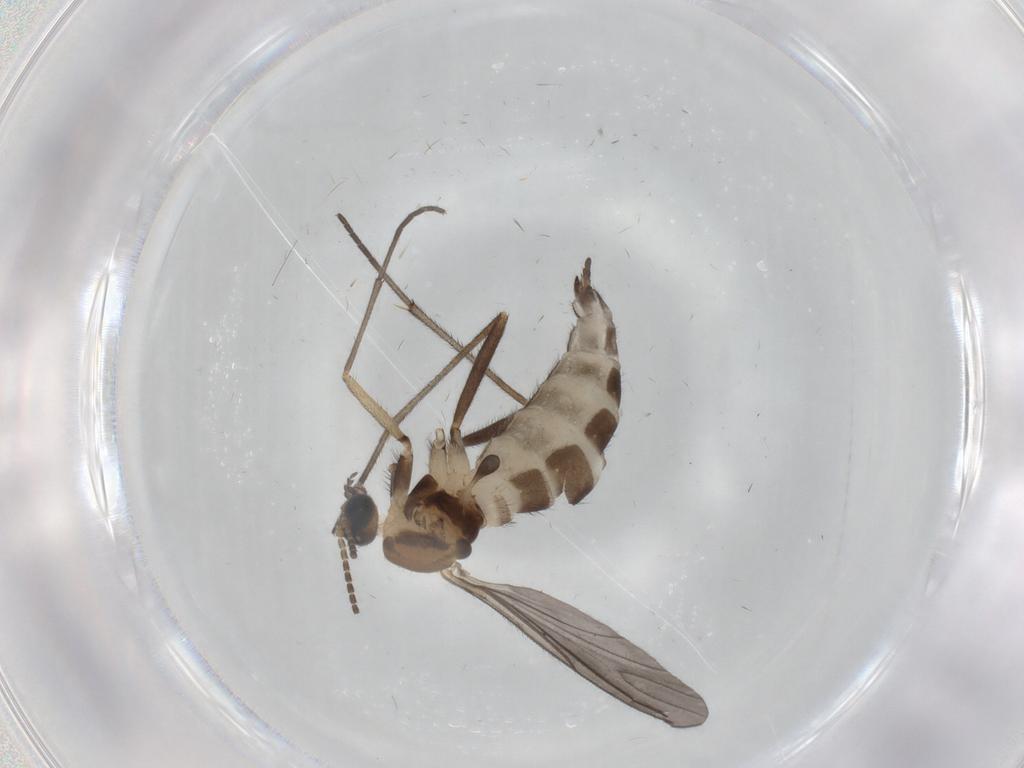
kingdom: Animalia
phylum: Arthropoda
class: Insecta
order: Diptera
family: Sciaridae
